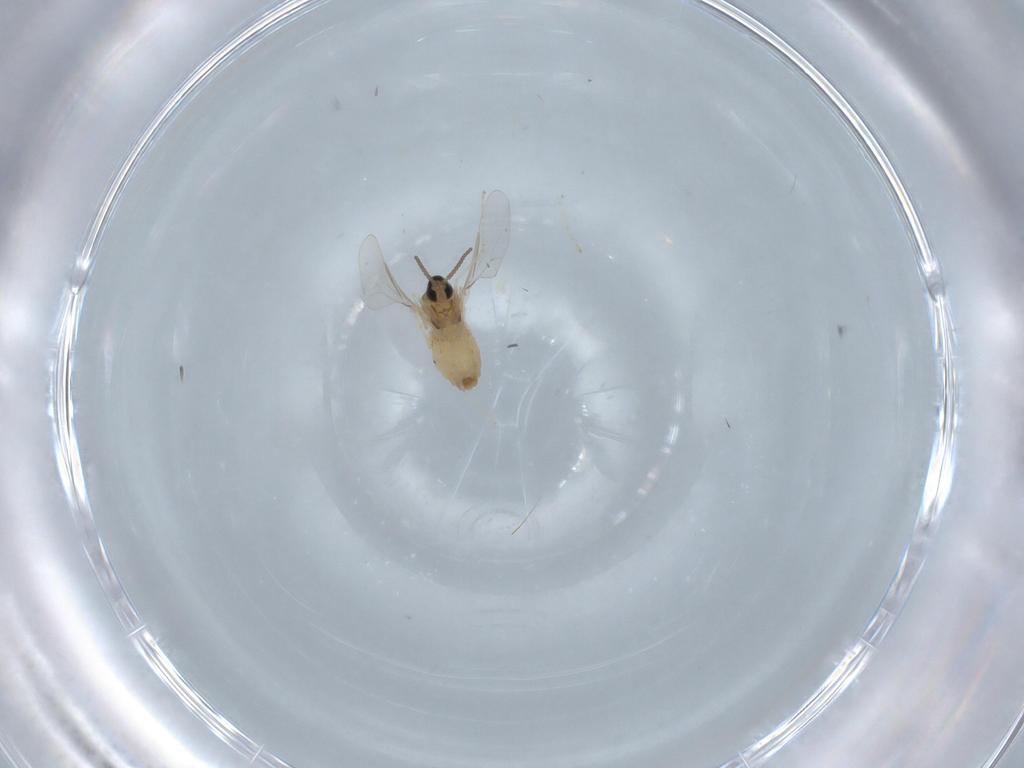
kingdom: Animalia
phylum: Arthropoda
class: Insecta
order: Diptera
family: Cecidomyiidae
